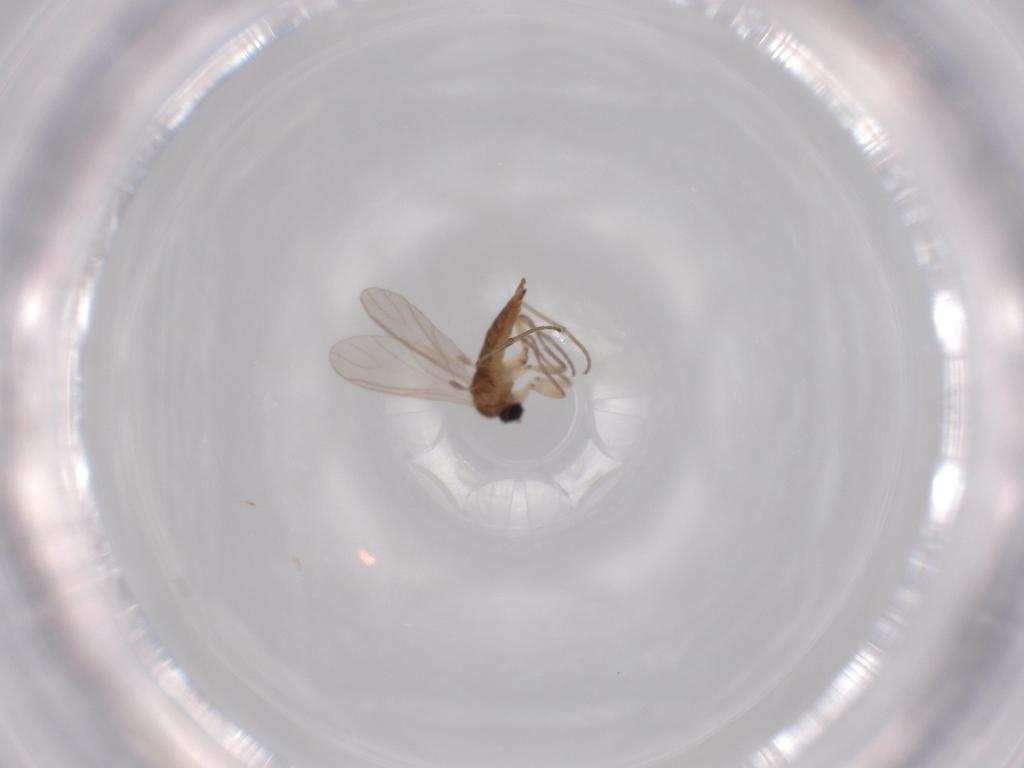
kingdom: Animalia
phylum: Arthropoda
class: Insecta
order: Diptera
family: Sciaridae
